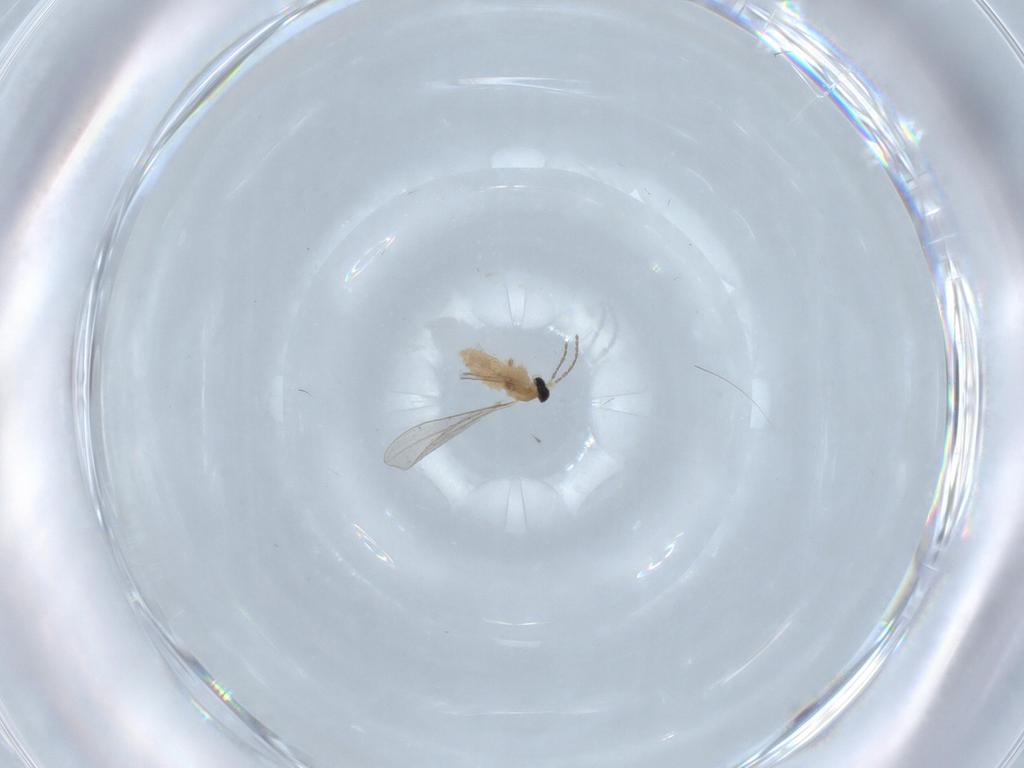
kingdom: Animalia
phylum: Arthropoda
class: Insecta
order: Diptera
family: Cecidomyiidae
